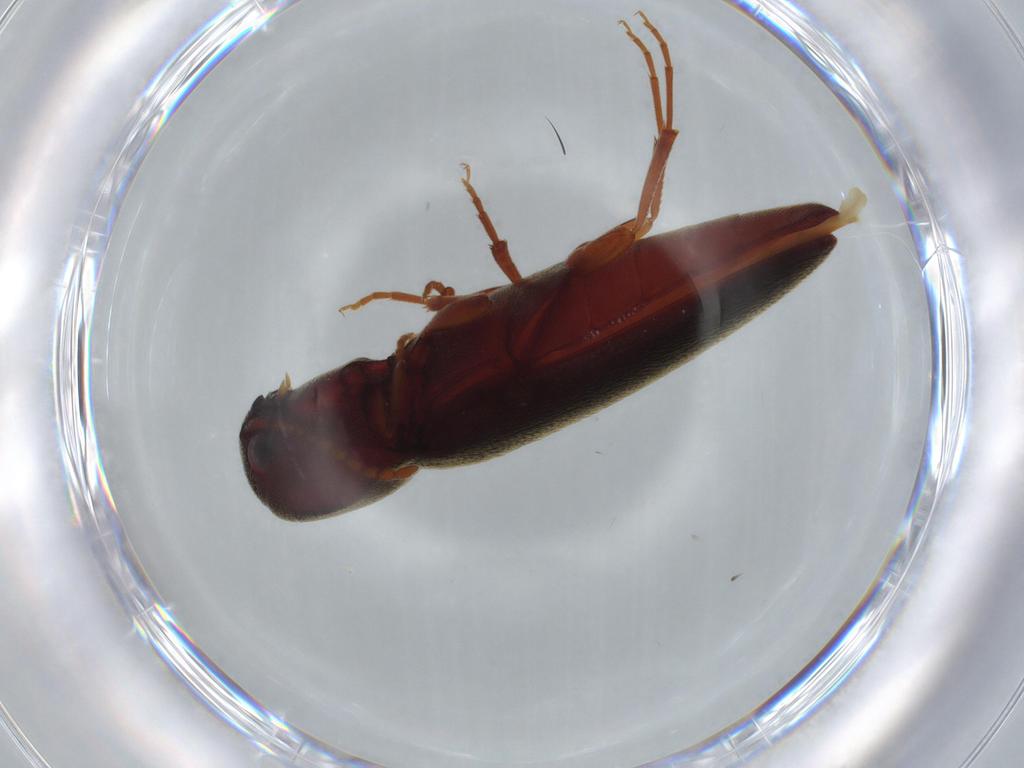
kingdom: Animalia
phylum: Arthropoda
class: Insecta
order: Coleoptera
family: Eucnemidae
